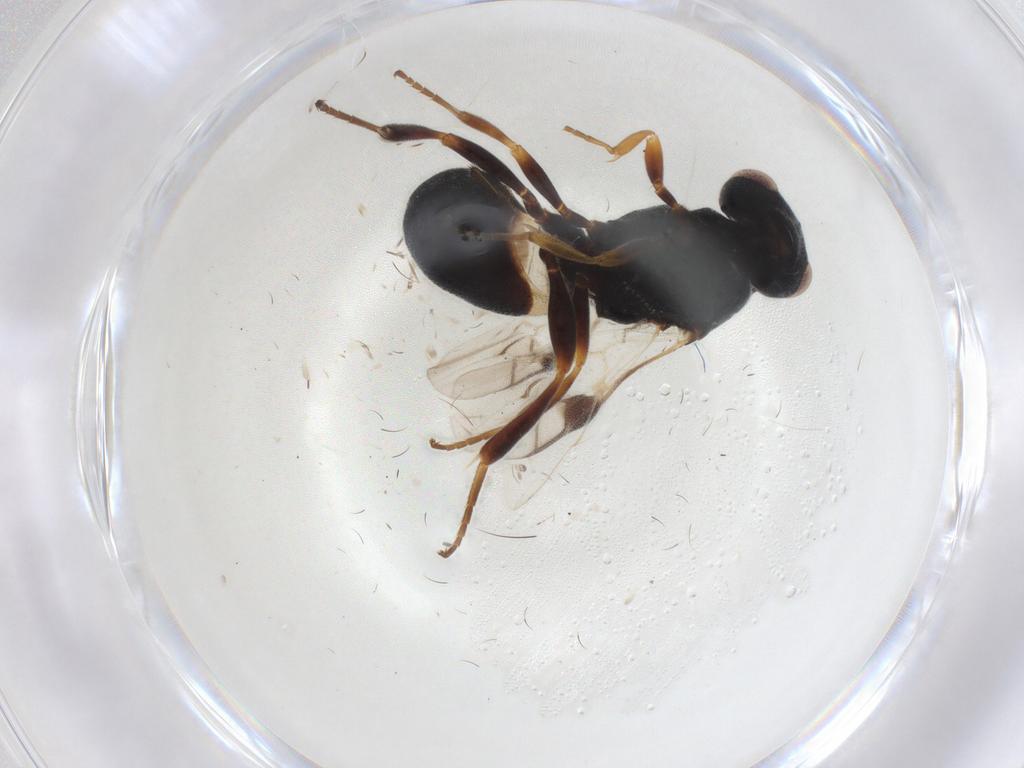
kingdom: Animalia
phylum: Arthropoda
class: Insecta
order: Hymenoptera
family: Braconidae
